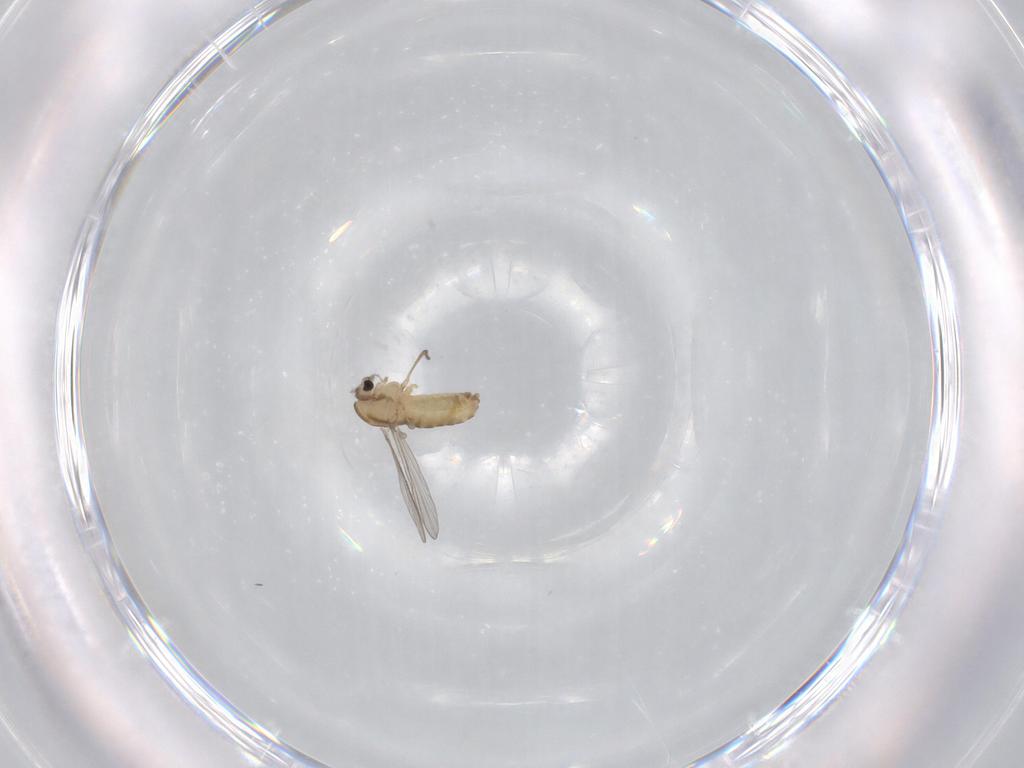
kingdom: Animalia
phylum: Arthropoda
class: Insecta
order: Diptera
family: Chironomidae
